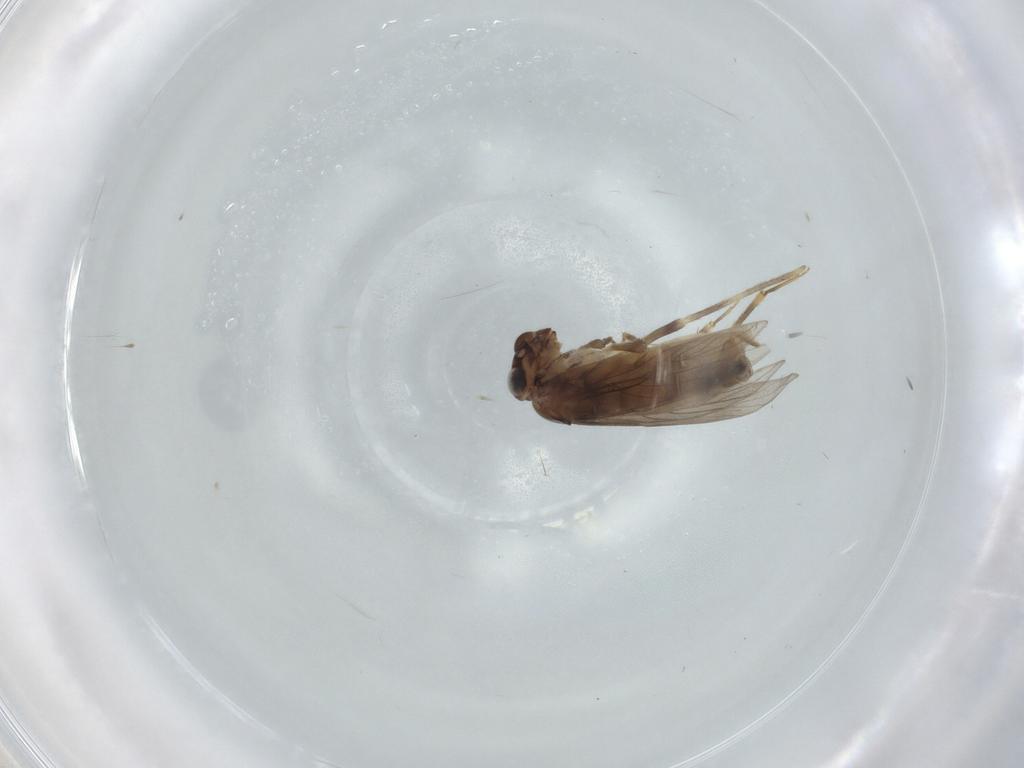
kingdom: Animalia
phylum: Arthropoda
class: Insecta
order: Psocodea
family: Lepidopsocidae
